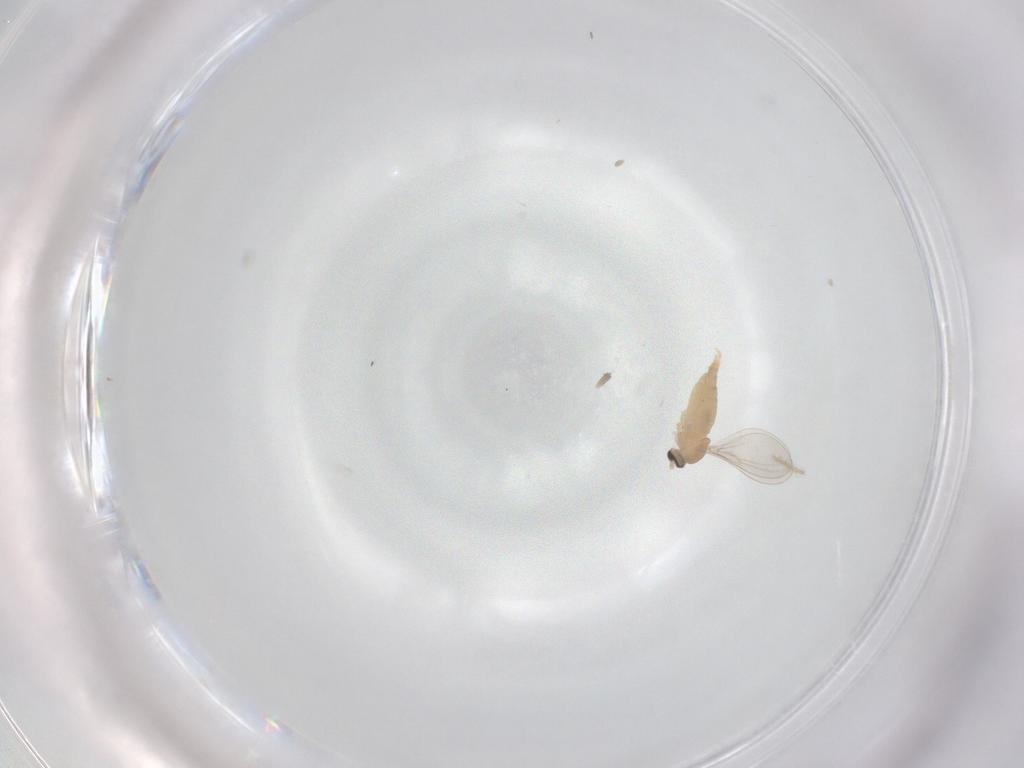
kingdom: Animalia
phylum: Arthropoda
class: Insecta
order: Diptera
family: Cecidomyiidae
